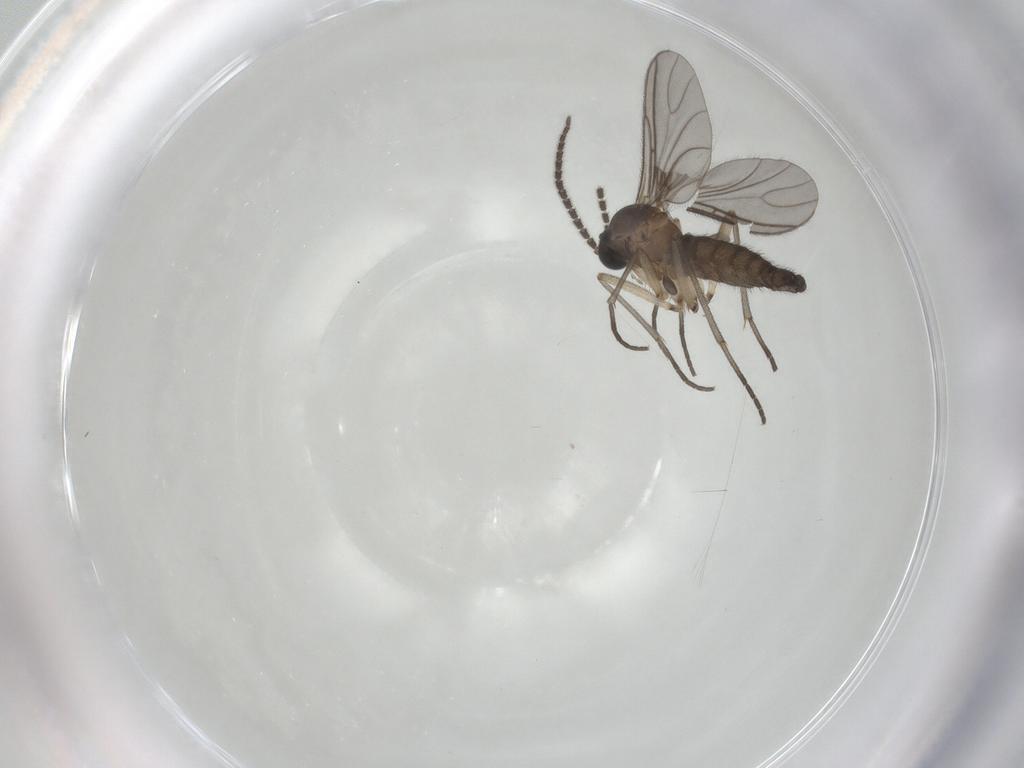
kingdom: Animalia
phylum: Arthropoda
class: Insecta
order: Diptera
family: Sciaridae
